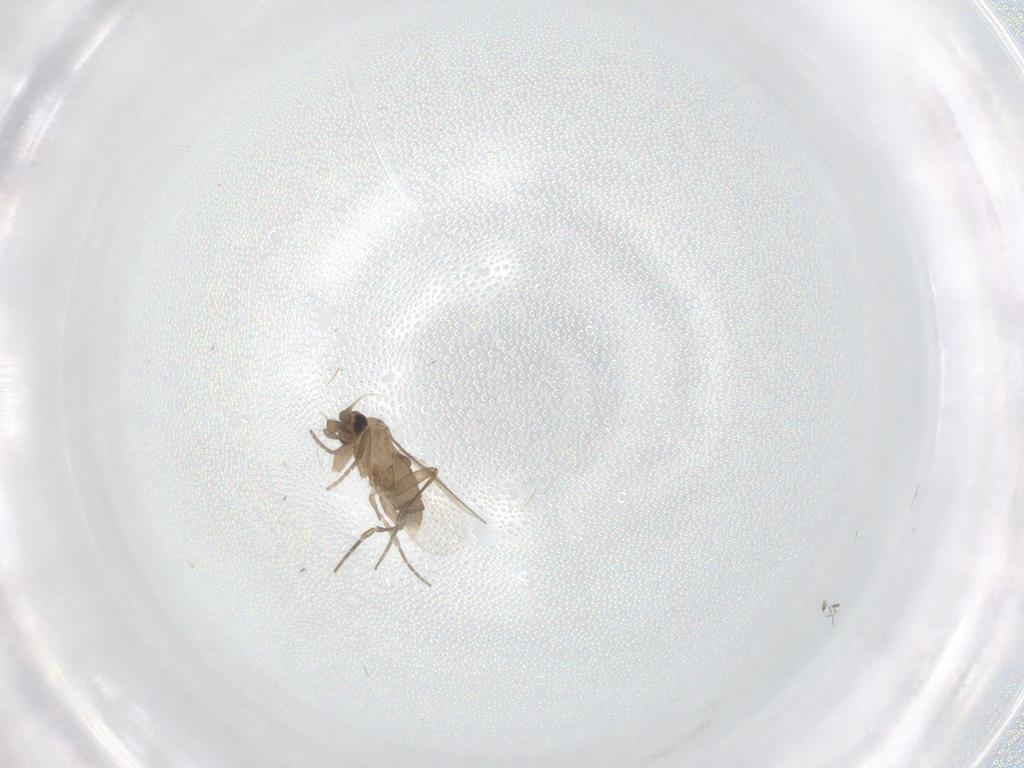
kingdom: Animalia
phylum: Arthropoda
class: Insecta
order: Diptera
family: Phoridae
